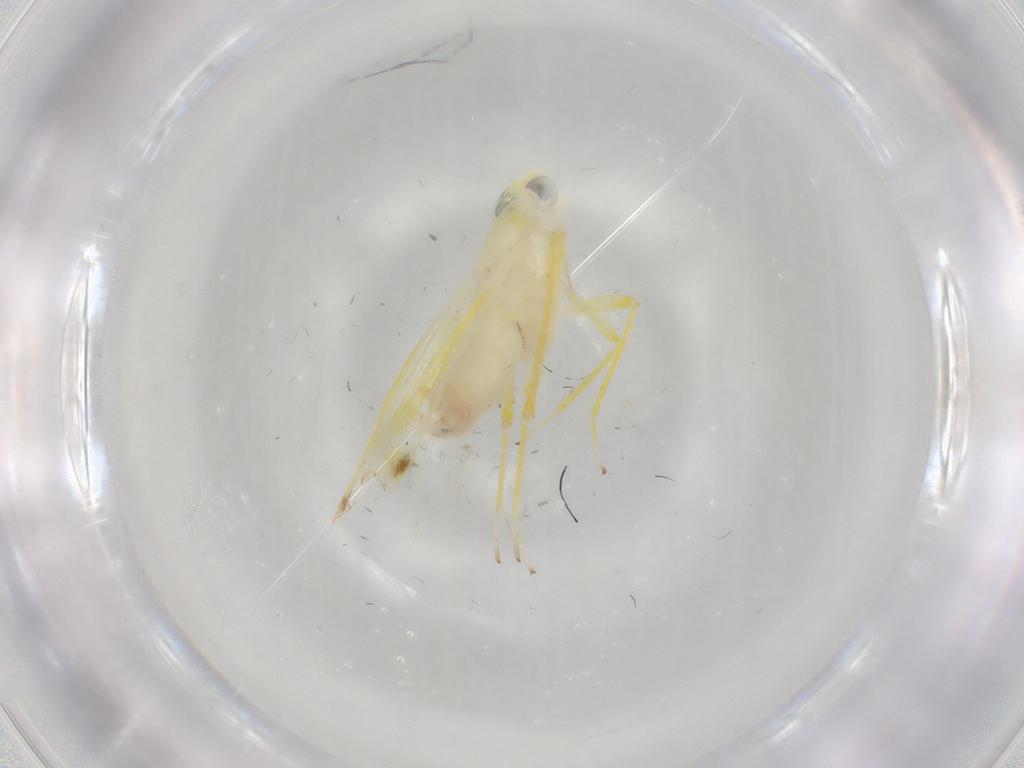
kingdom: Animalia
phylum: Arthropoda
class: Insecta
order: Hemiptera
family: Cicadellidae
